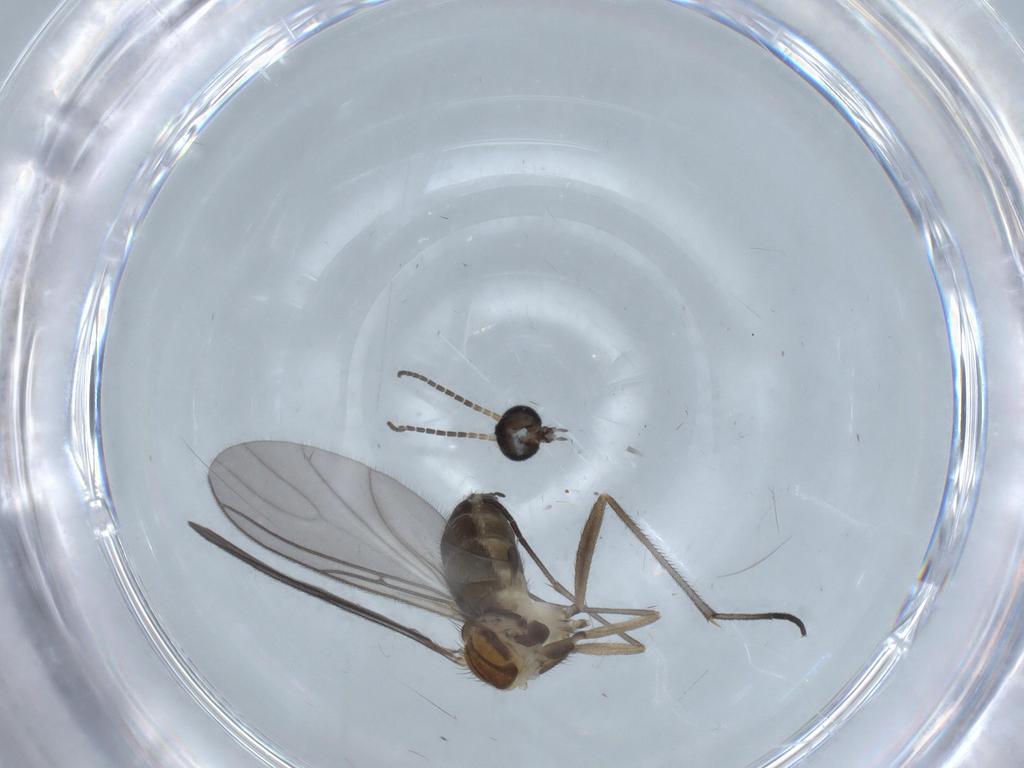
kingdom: Animalia
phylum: Arthropoda
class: Insecta
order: Diptera
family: Sciaridae
